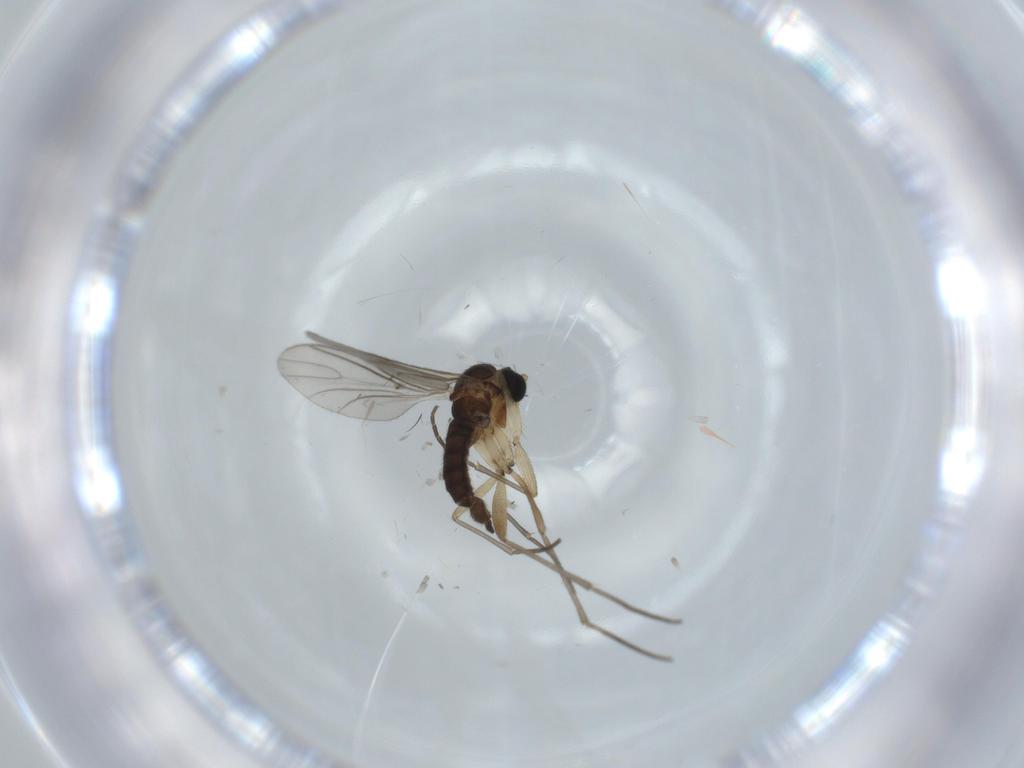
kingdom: Animalia
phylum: Arthropoda
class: Insecta
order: Diptera
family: Sciaridae
